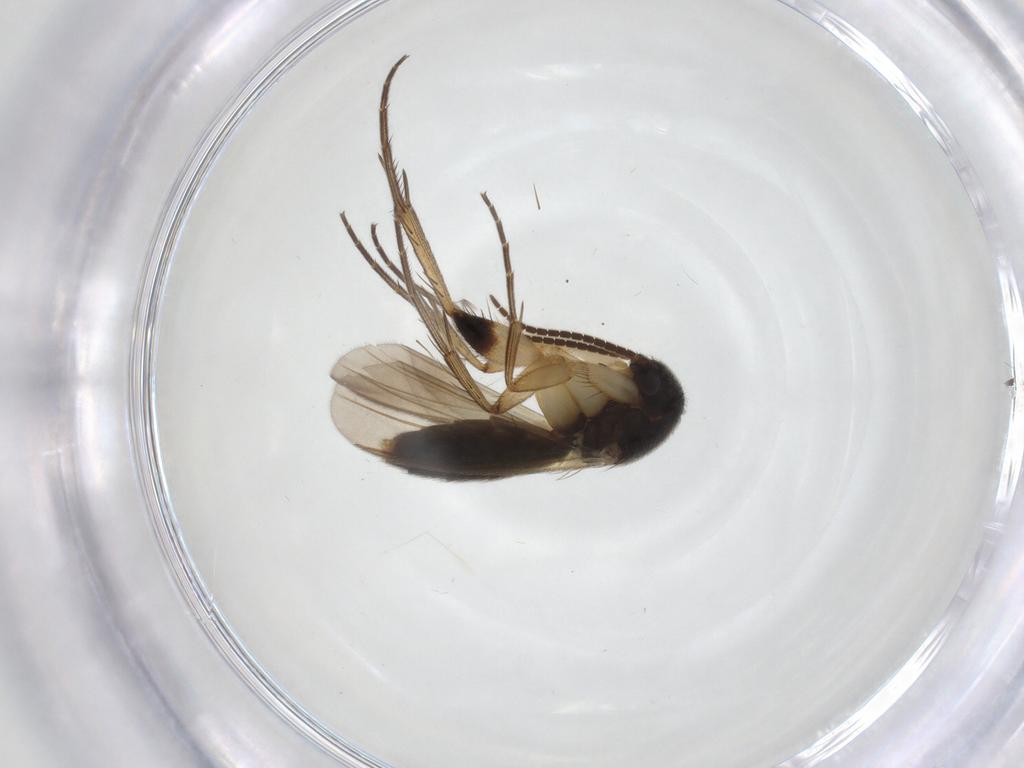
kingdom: Animalia
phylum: Arthropoda
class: Insecta
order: Diptera
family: Mycetophilidae
